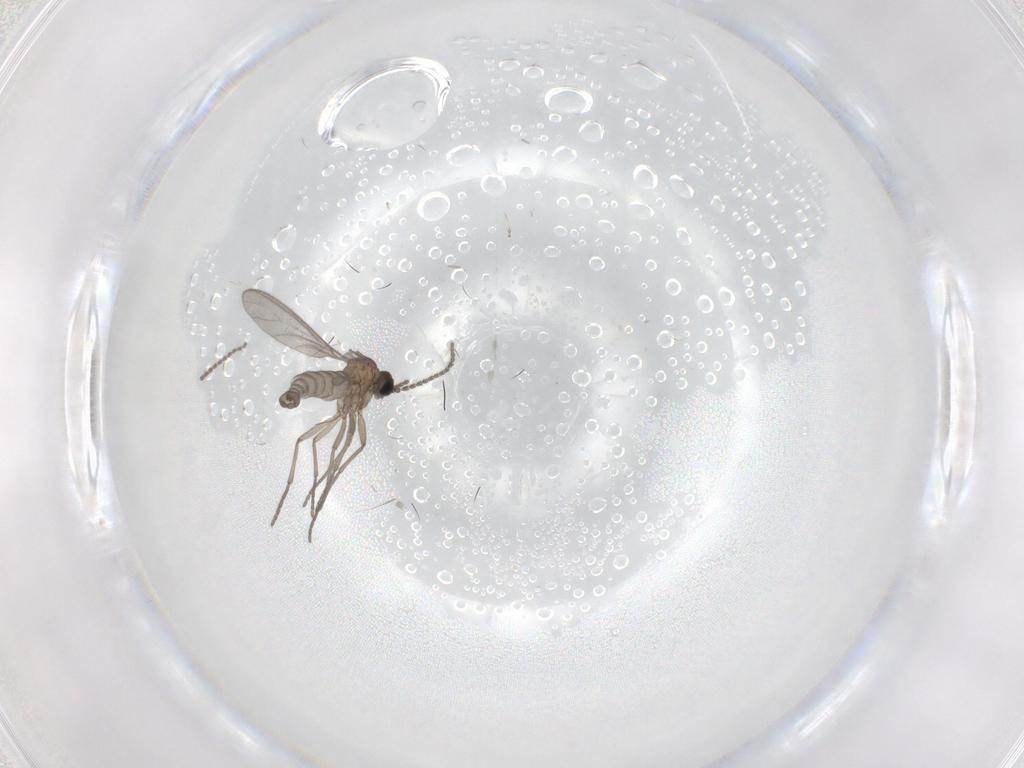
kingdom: Animalia
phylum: Arthropoda
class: Insecta
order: Diptera
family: Sciaridae
